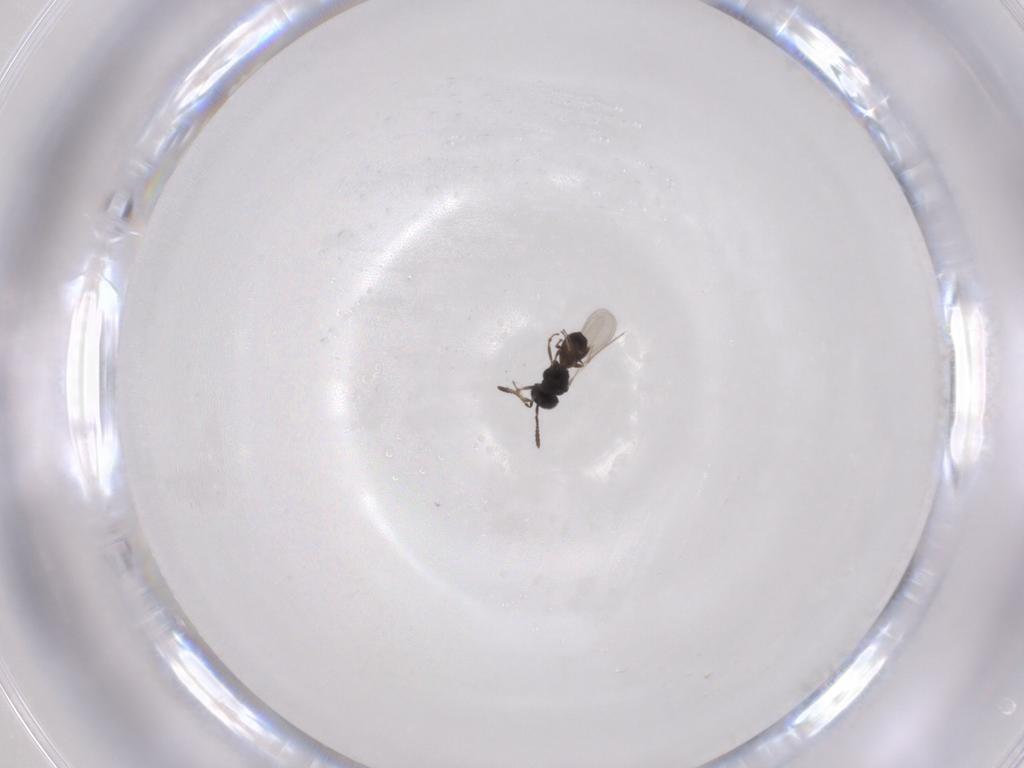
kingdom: Animalia
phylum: Arthropoda
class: Insecta
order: Hymenoptera
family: Scelionidae
